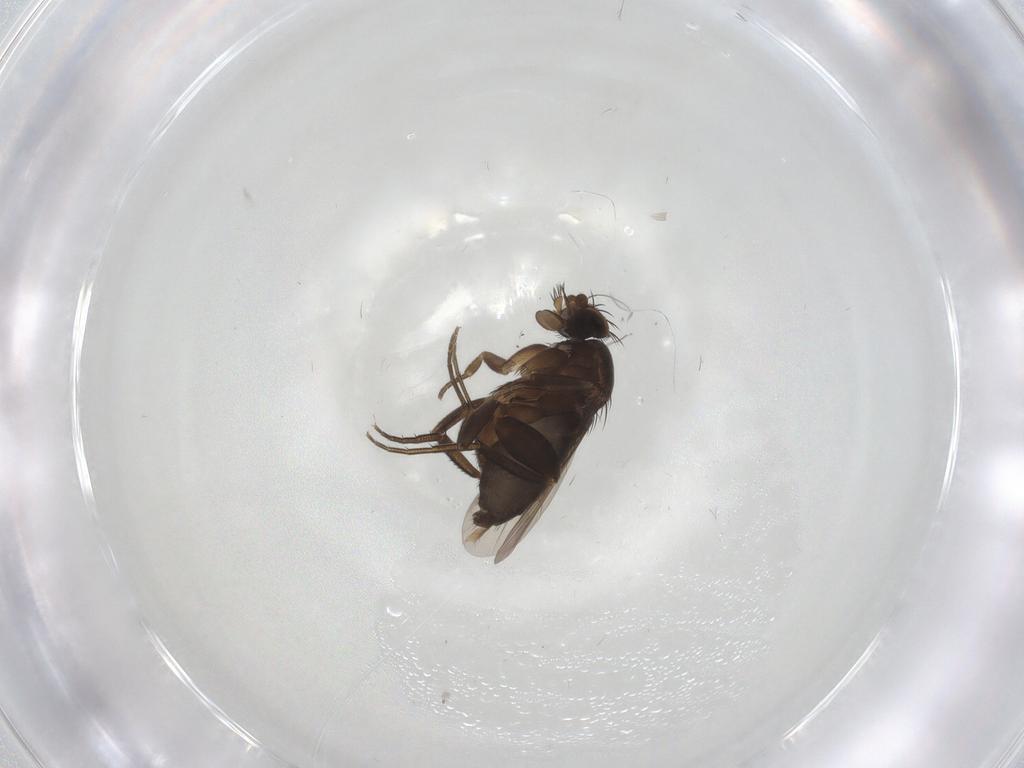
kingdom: Animalia
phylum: Arthropoda
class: Insecta
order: Diptera
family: Phoridae
